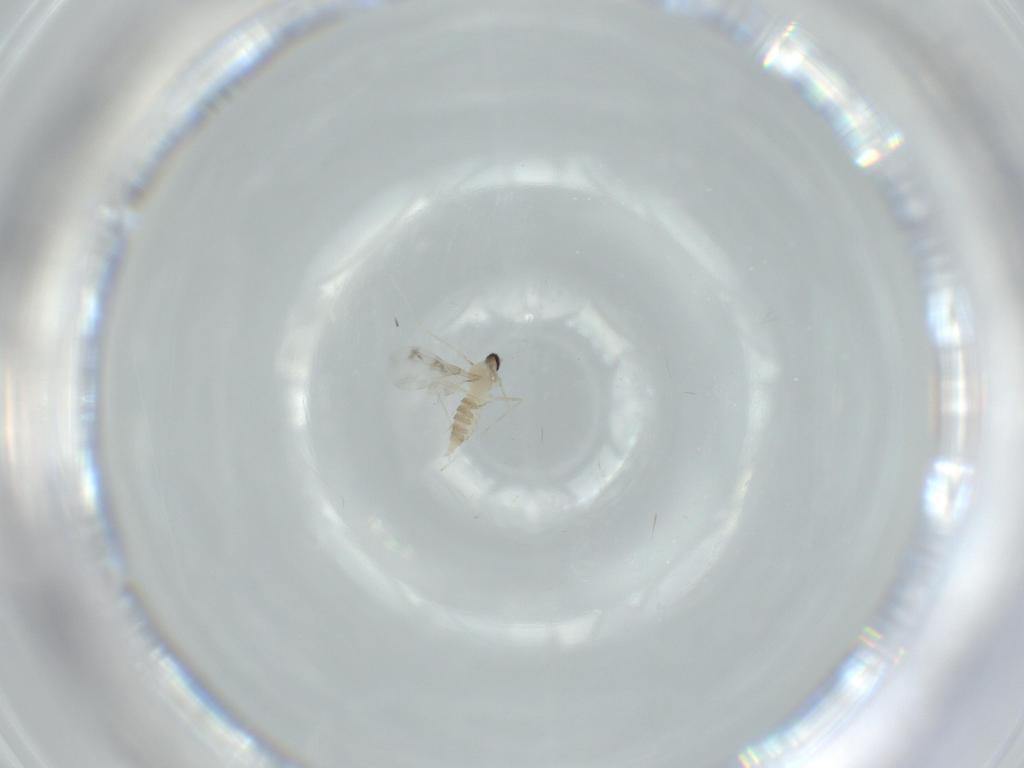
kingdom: Animalia
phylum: Arthropoda
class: Insecta
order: Diptera
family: Cecidomyiidae
